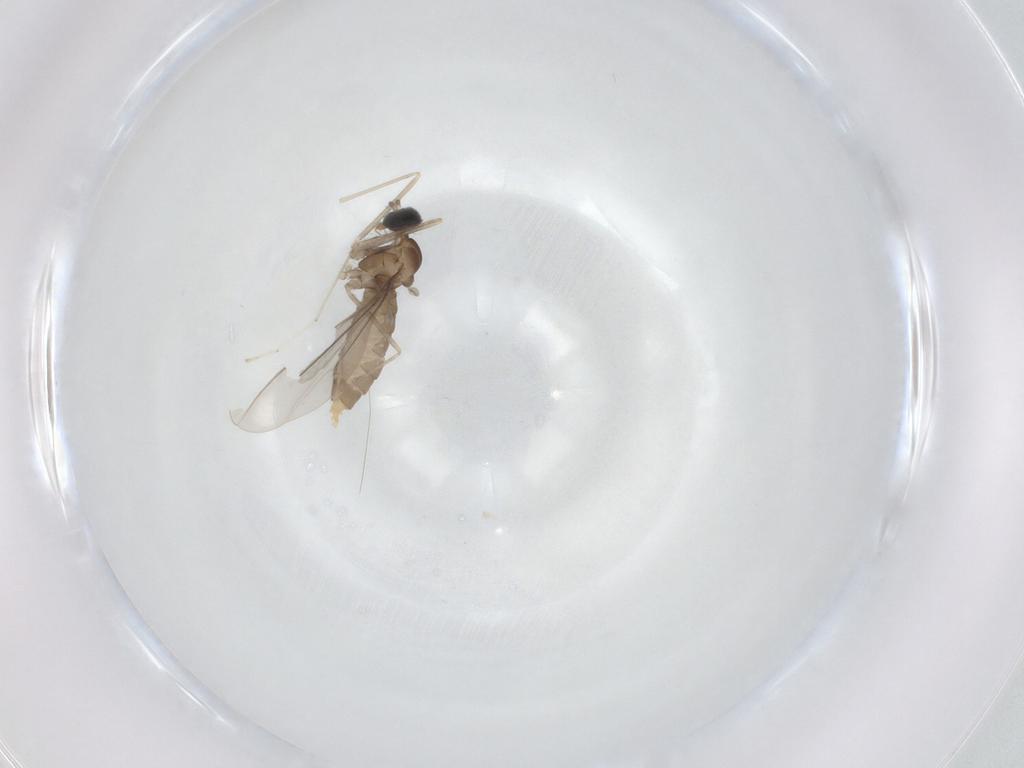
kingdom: Animalia
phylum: Arthropoda
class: Insecta
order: Diptera
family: Cecidomyiidae
